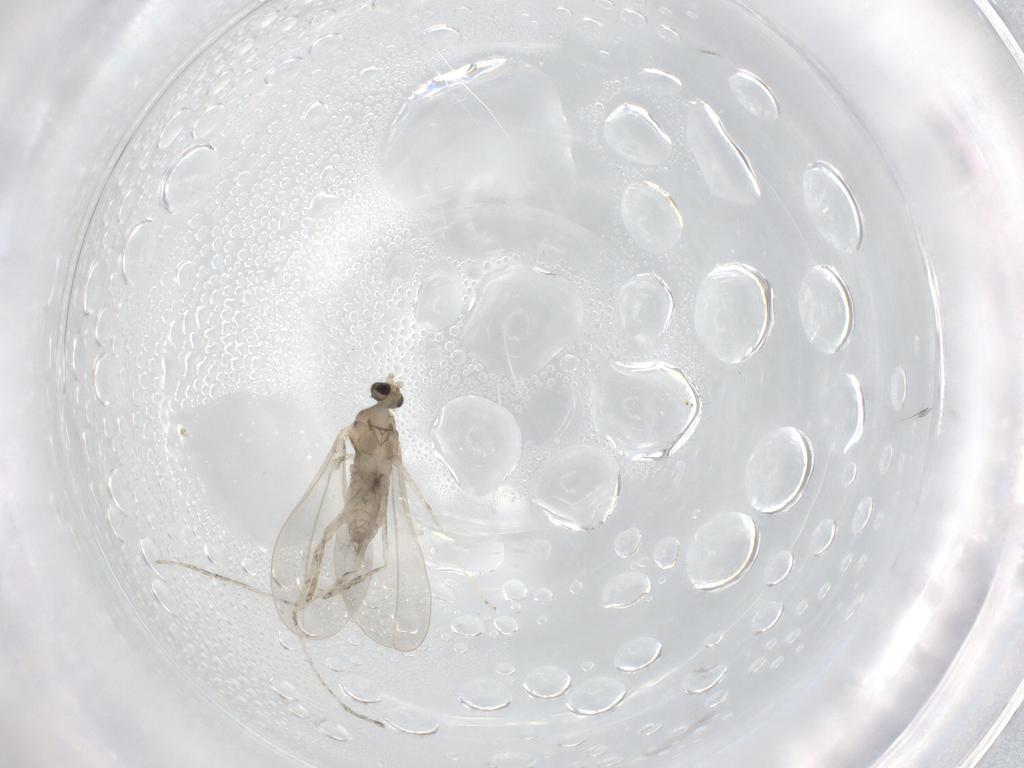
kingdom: Animalia
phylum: Arthropoda
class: Insecta
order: Diptera
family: Cecidomyiidae
